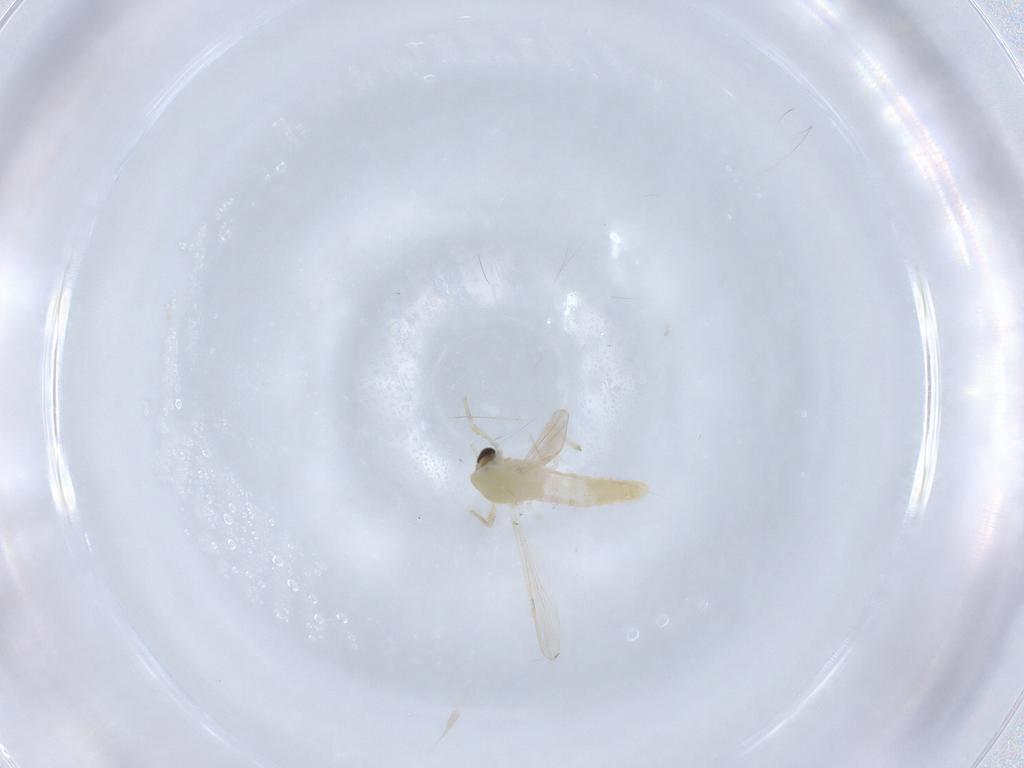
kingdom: Animalia
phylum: Arthropoda
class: Insecta
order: Diptera
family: Chironomidae
